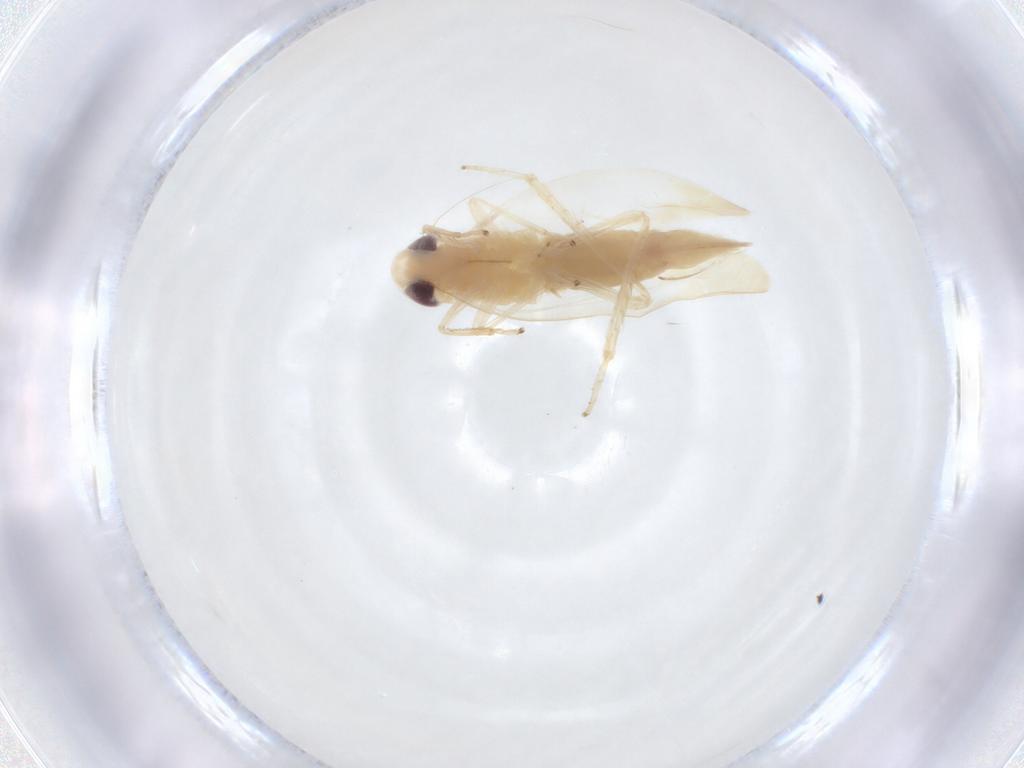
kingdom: Animalia
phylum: Arthropoda
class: Insecta
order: Hemiptera
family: Cicadellidae
